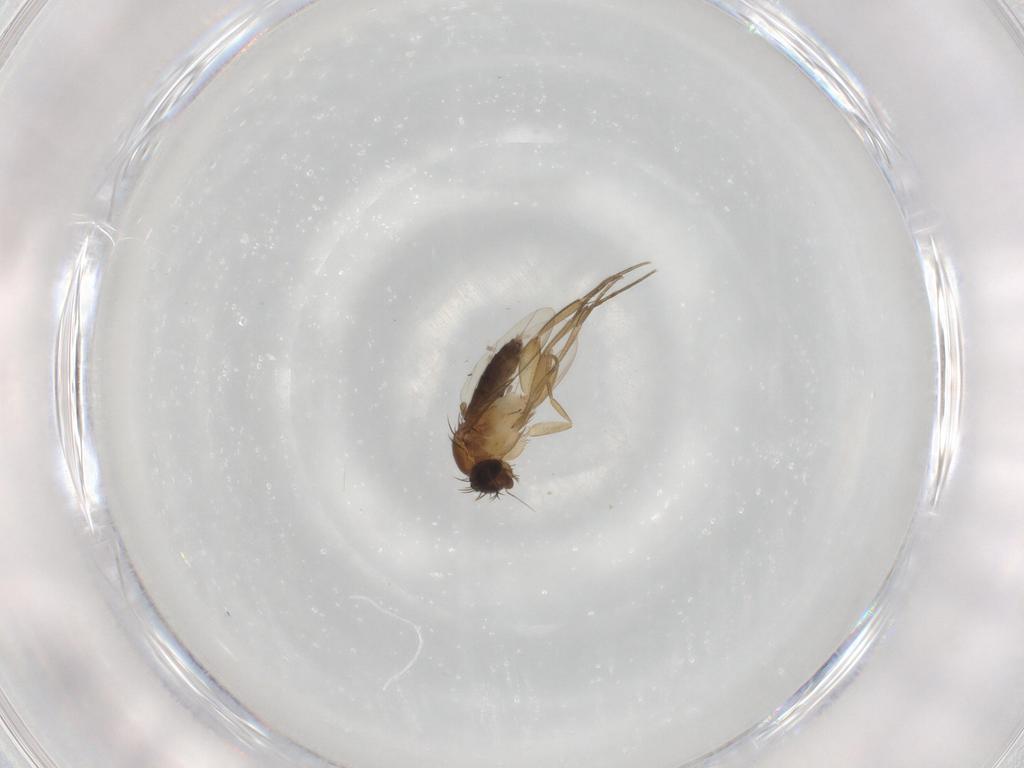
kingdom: Animalia
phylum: Arthropoda
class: Insecta
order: Diptera
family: Phoridae
